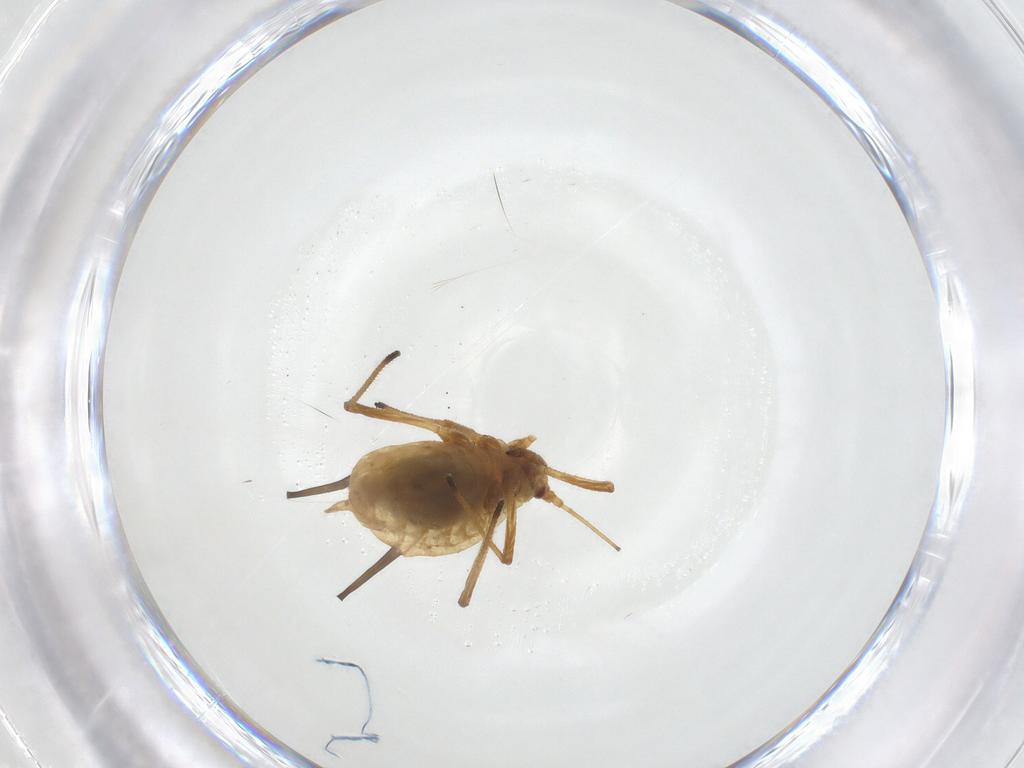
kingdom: Animalia
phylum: Arthropoda
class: Insecta
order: Hemiptera
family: Aphididae
